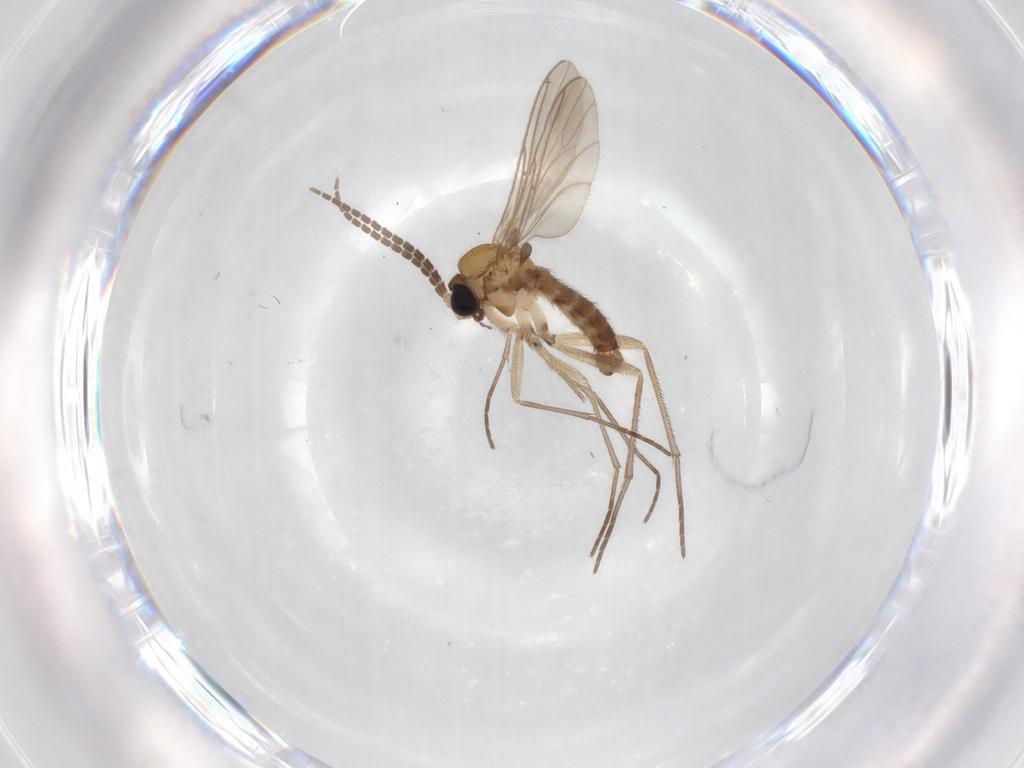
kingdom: Animalia
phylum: Arthropoda
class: Insecta
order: Diptera
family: Sciaridae
